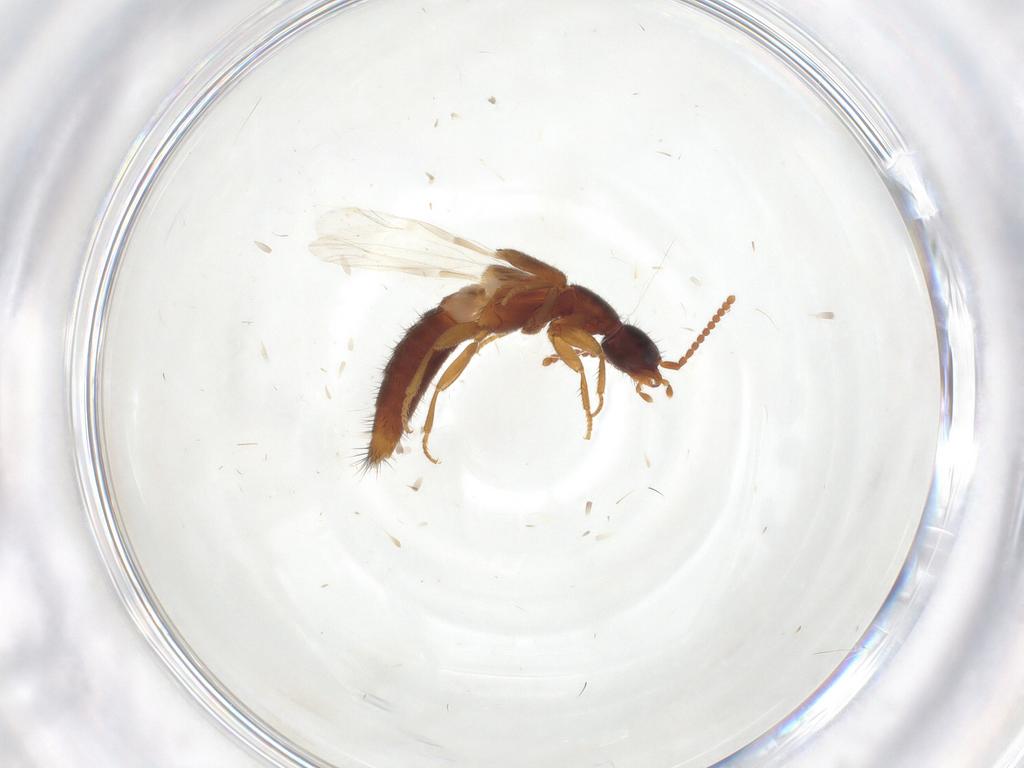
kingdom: Animalia
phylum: Arthropoda
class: Insecta
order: Coleoptera
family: Staphylinidae
